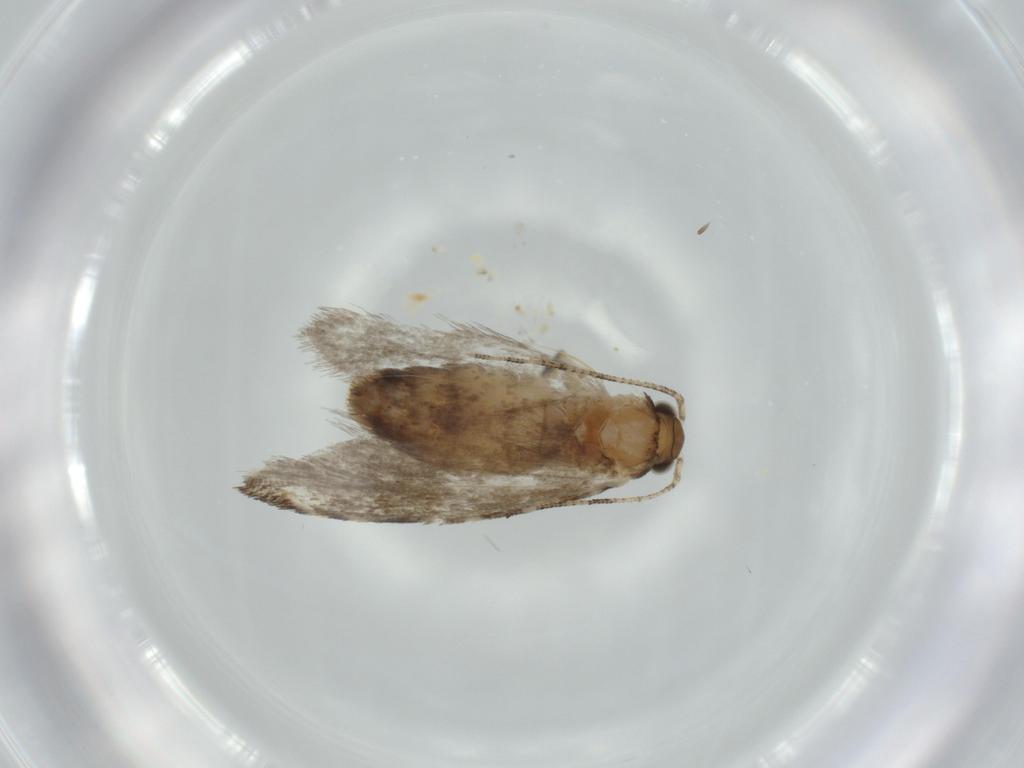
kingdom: Animalia
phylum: Arthropoda
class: Insecta
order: Lepidoptera
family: Tineidae
